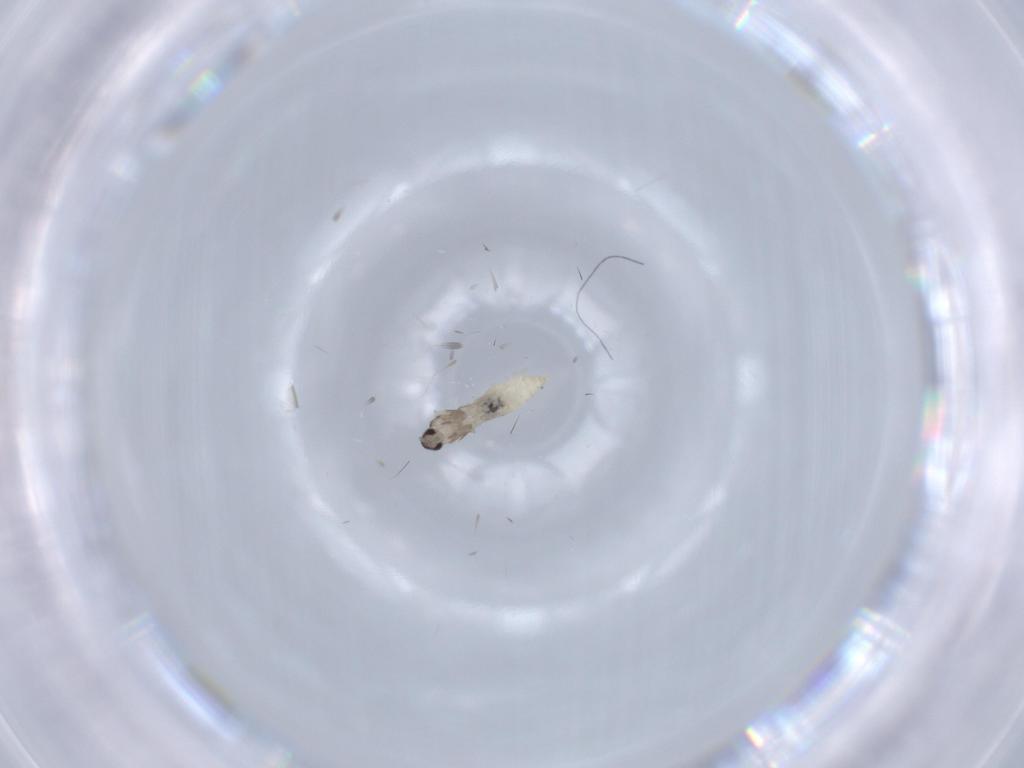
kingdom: Animalia
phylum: Arthropoda
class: Insecta
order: Diptera
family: Cecidomyiidae
